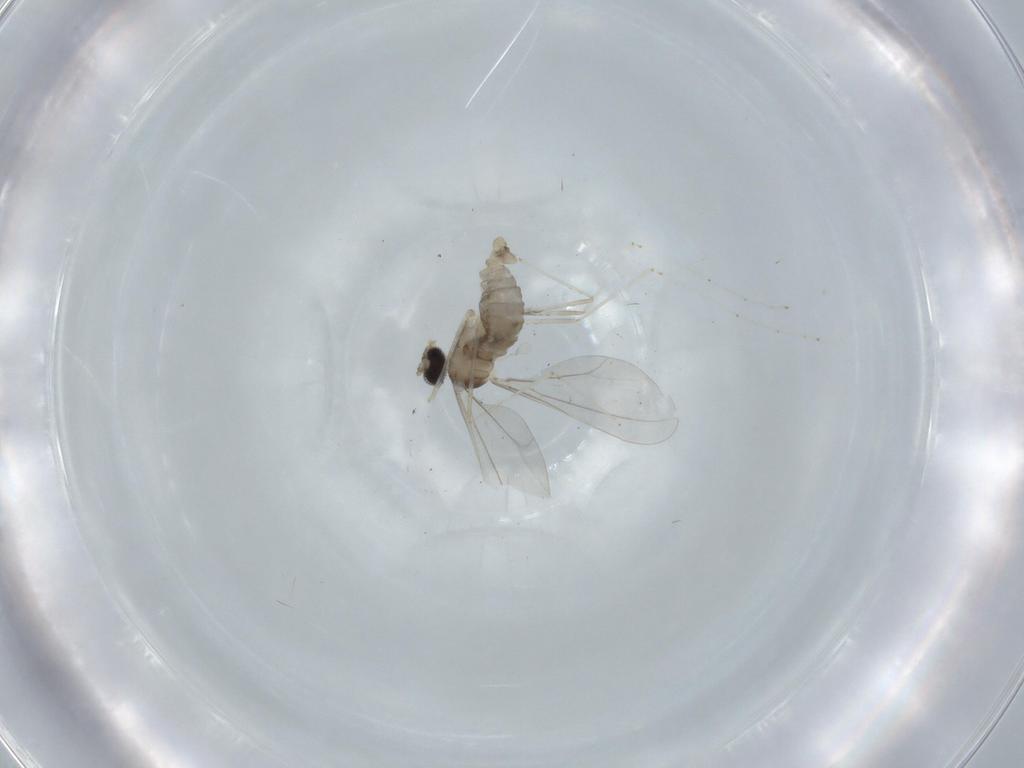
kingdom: Animalia
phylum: Arthropoda
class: Insecta
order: Diptera
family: Cecidomyiidae
